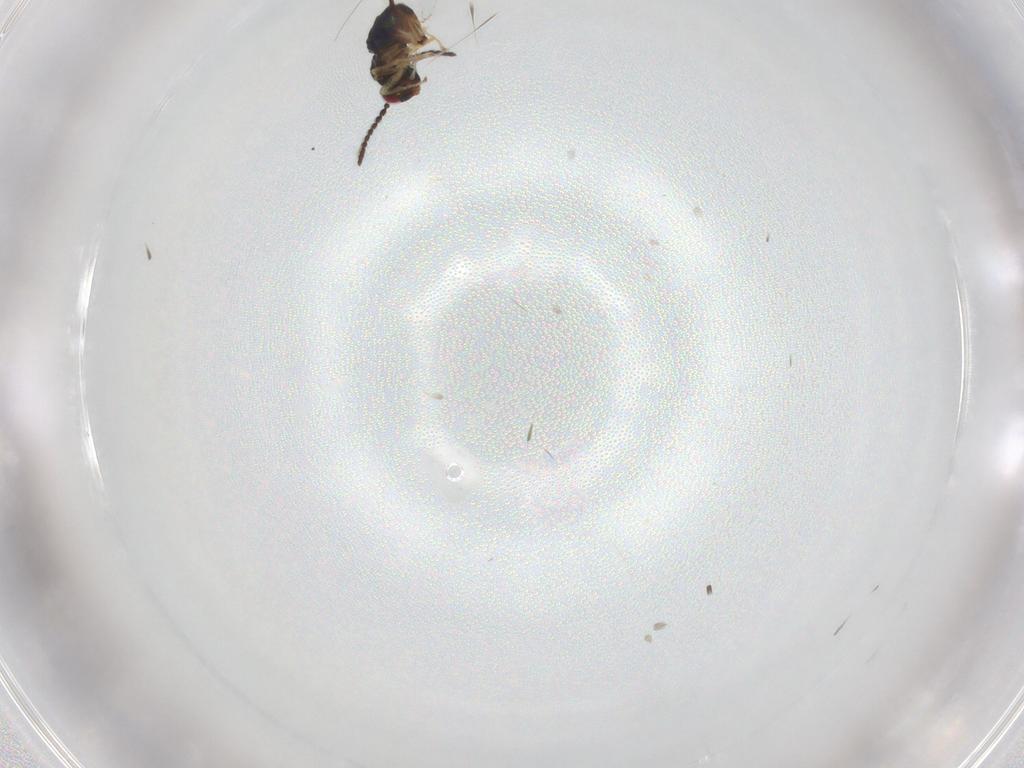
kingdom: Animalia
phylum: Arthropoda
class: Insecta
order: Hymenoptera
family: Pteromalidae
